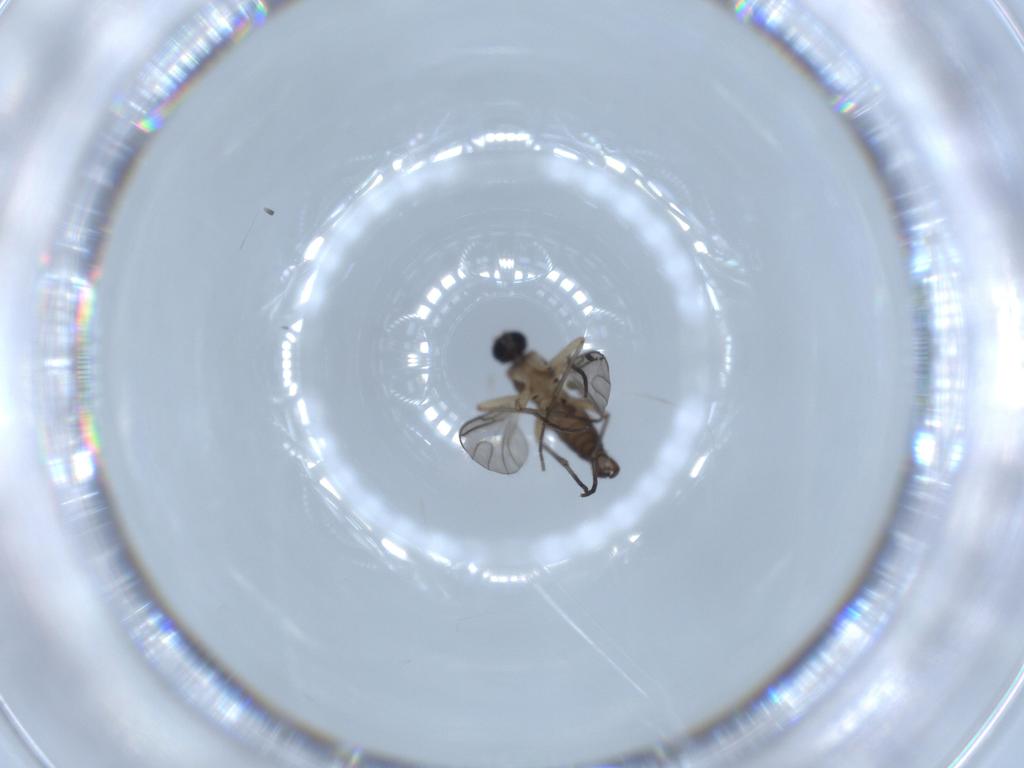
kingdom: Animalia
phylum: Arthropoda
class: Insecta
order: Diptera
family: Sciaridae
